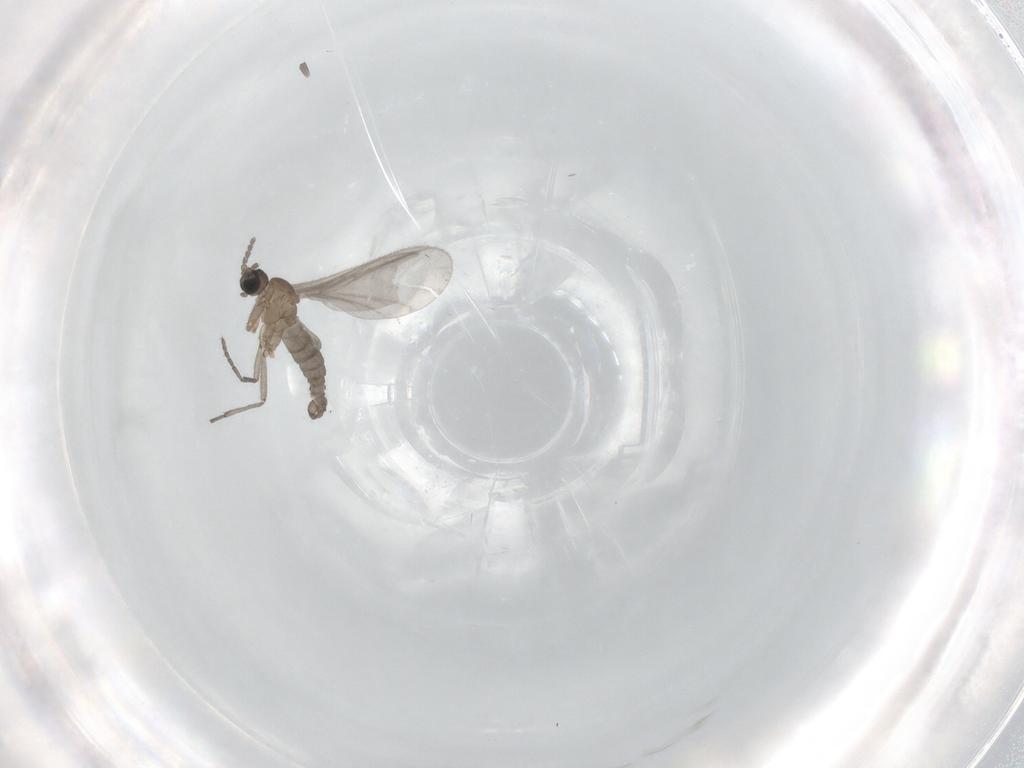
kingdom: Animalia
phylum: Arthropoda
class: Insecta
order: Diptera
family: Sciaridae
